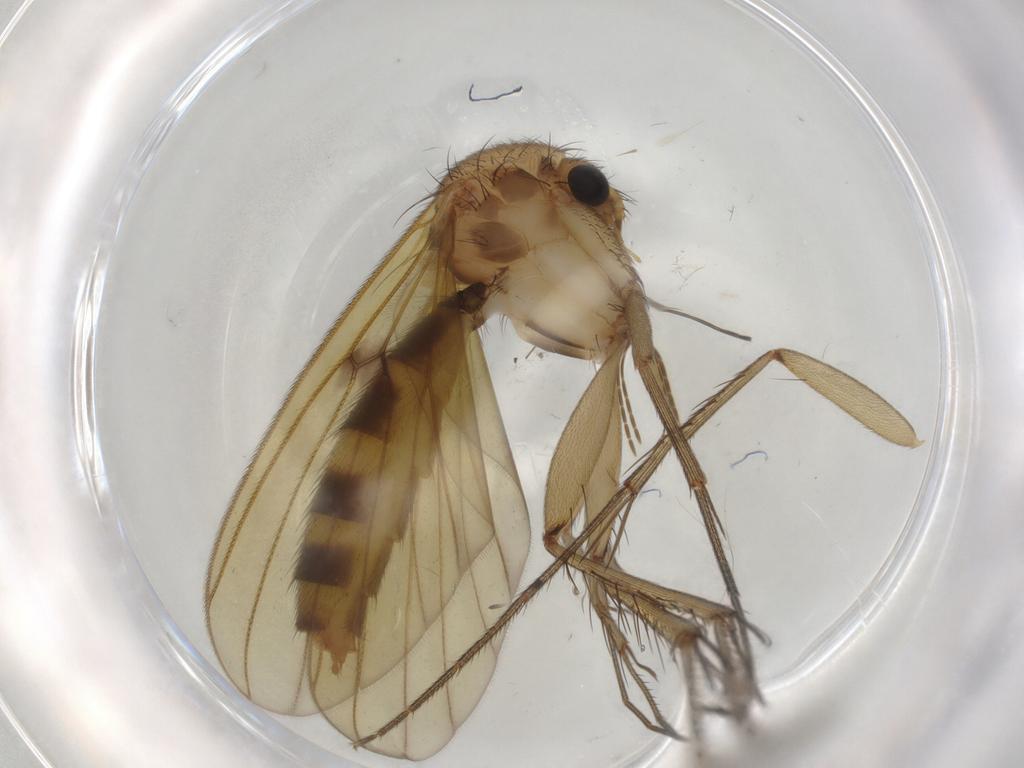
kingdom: Animalia
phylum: Arthropoda
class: Insecta
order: Diptera
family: Mycetophilidae
